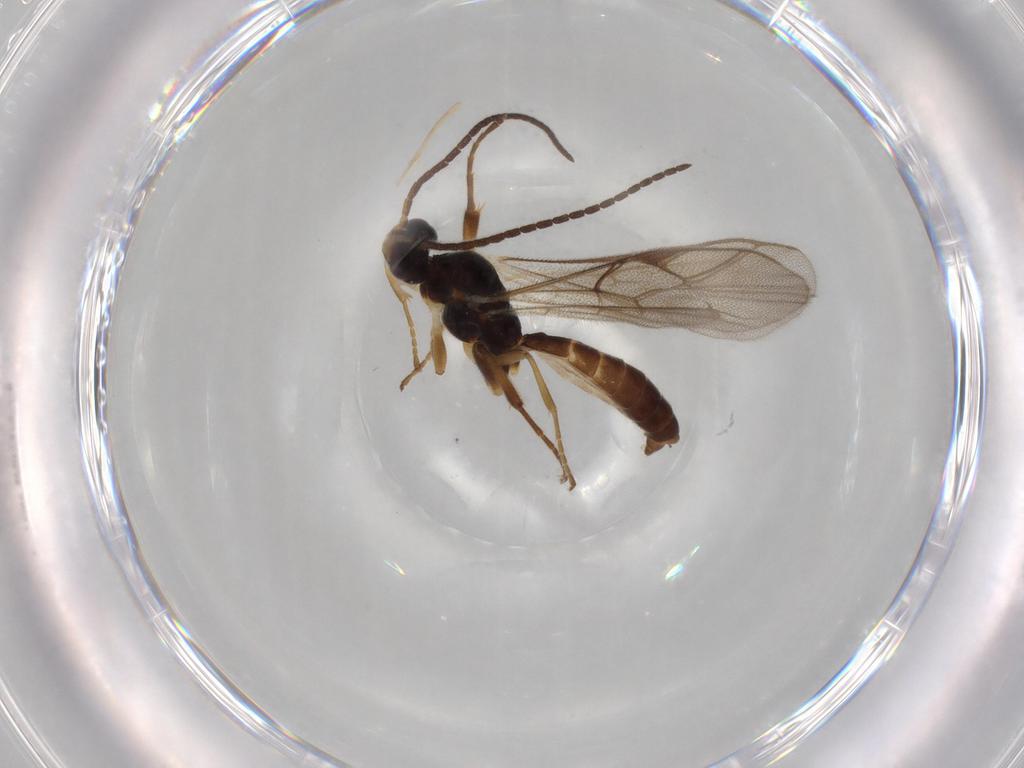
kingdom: Animalia
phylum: Arthropoda
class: Insecta
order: Hymenoptera
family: Ichneumonidae
